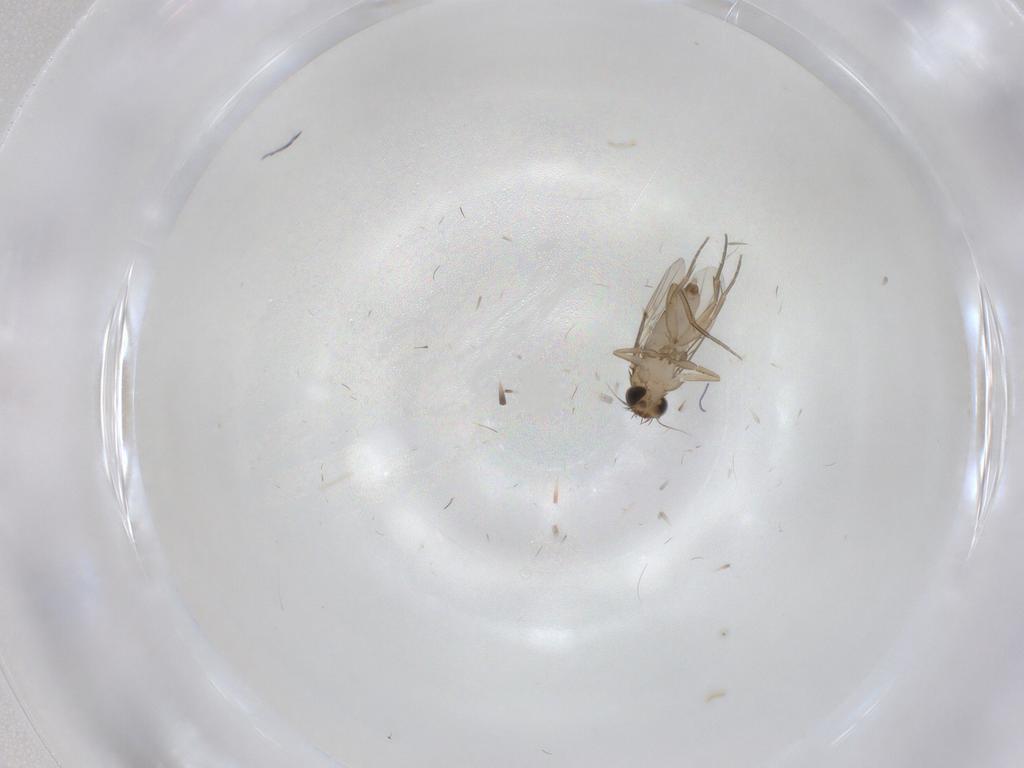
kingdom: Animalia
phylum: Arthropoda
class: Insecta
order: Diptera
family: Phoridae
